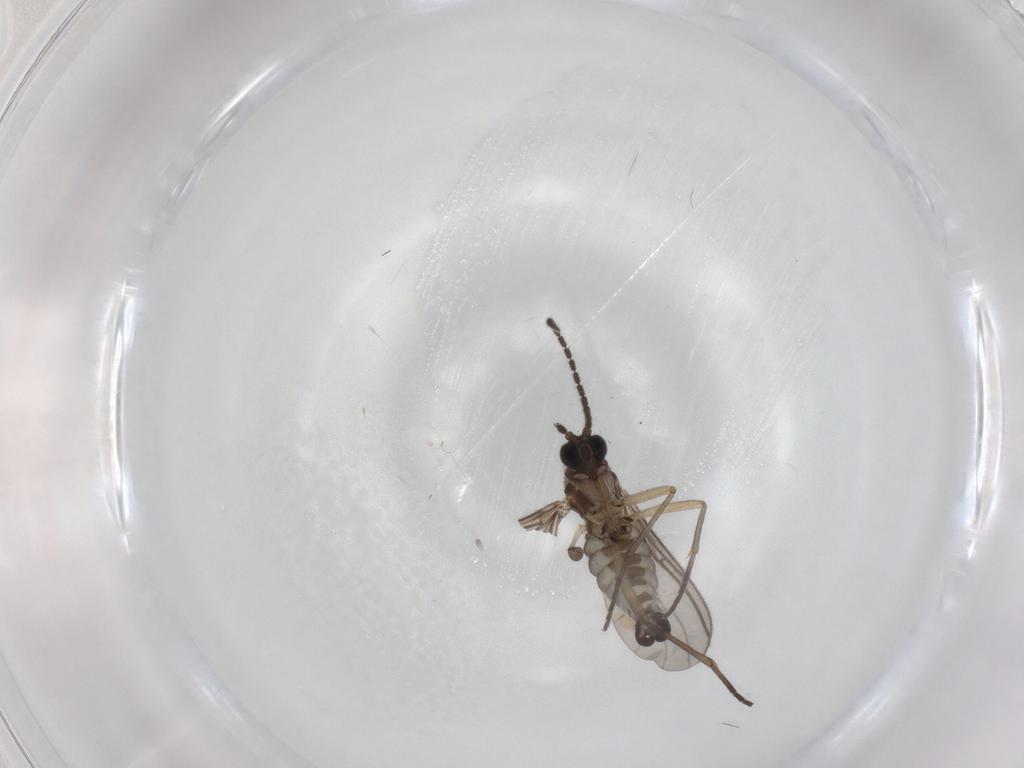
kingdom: Animalia
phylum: Arthropoda
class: Insecta
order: Diptera
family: Sciaridae
